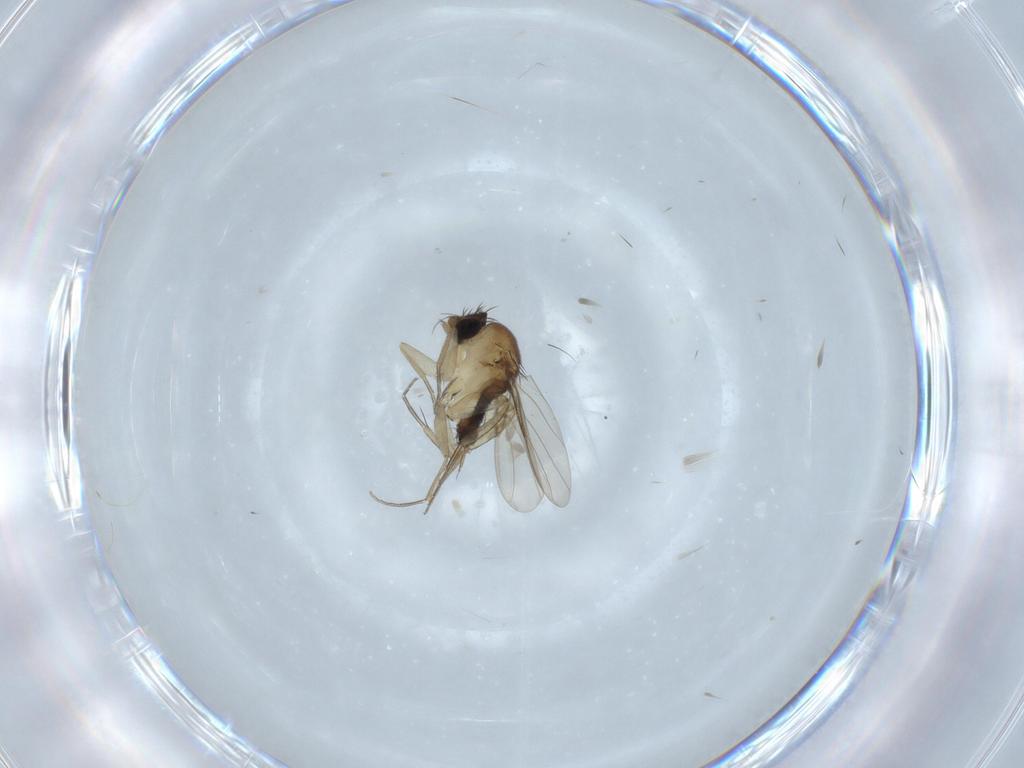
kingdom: Animalia
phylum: Arthropoda
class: Insecta
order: Diptera
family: Phoridae
